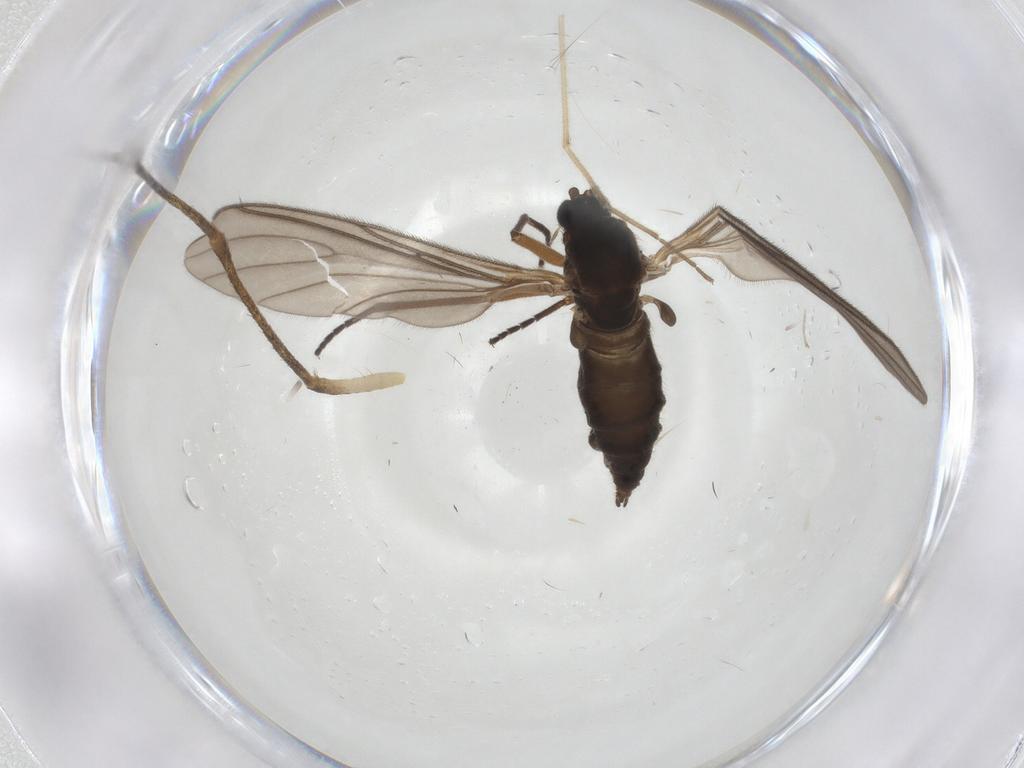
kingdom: Animalia
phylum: Arthropoda
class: Insecta
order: Diptera
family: Sciaridae
